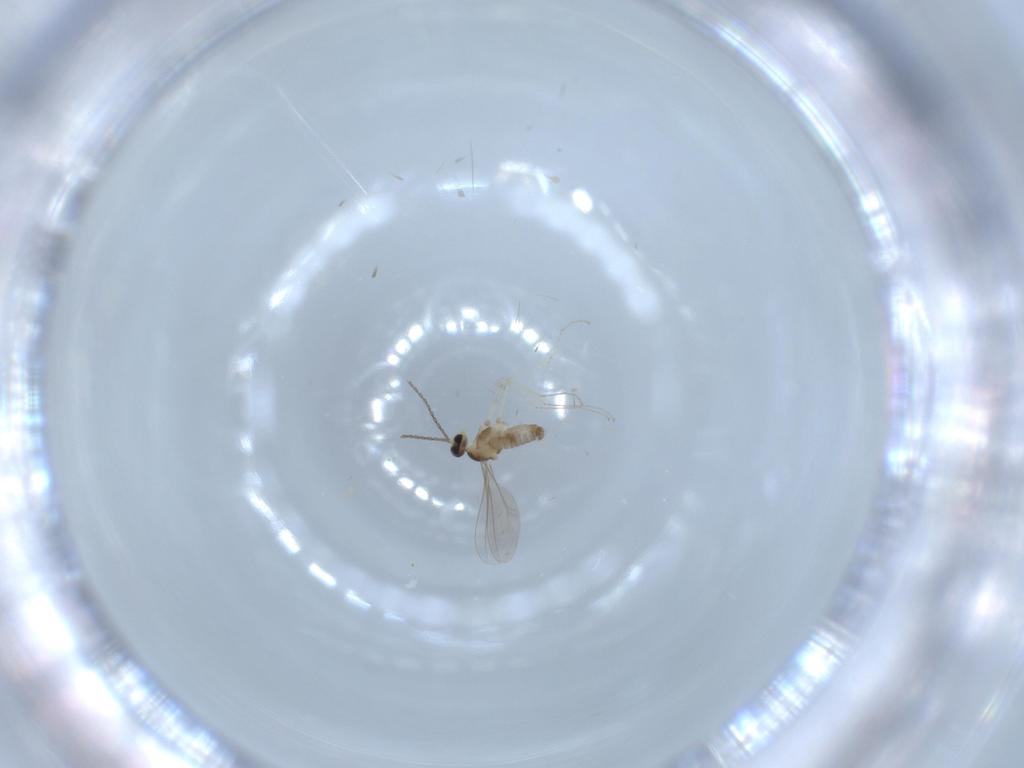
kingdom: Animalia
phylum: Arthropoda
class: Insecta
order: Diptera
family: Cecidomyiidae
